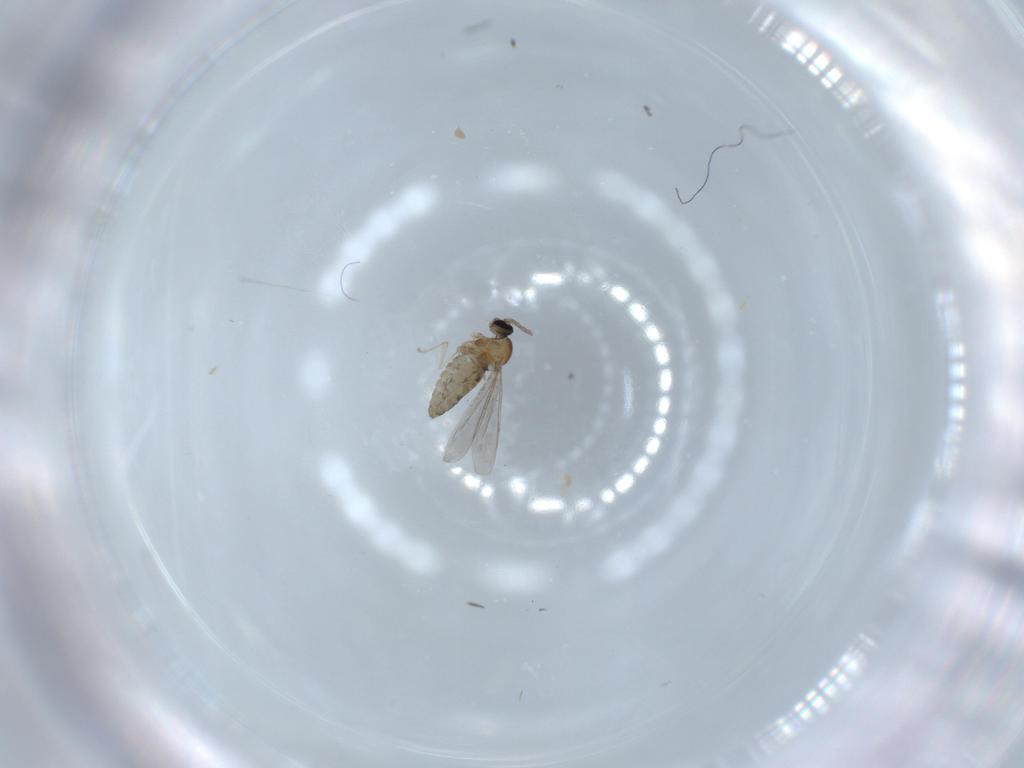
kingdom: Animalia
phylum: Arthropoda
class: Insecta
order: Diptera
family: Cecidomyiidae
